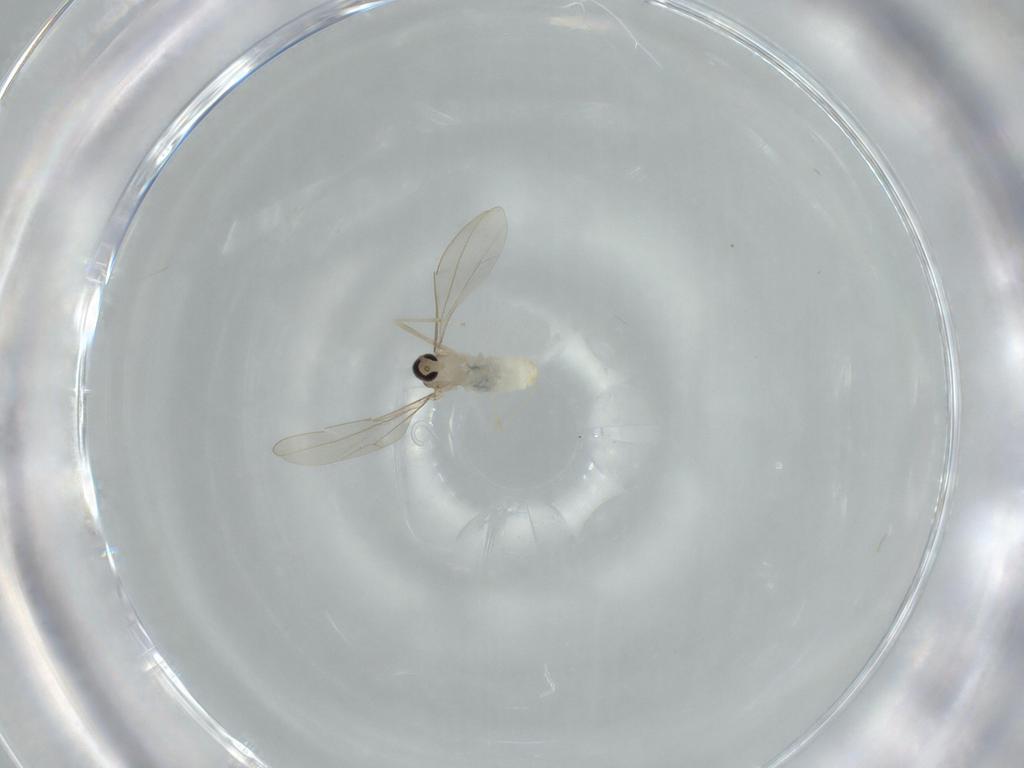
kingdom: Animalia
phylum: Arthropoda
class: Insecta
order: Diptera
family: Cecidomyiidae
